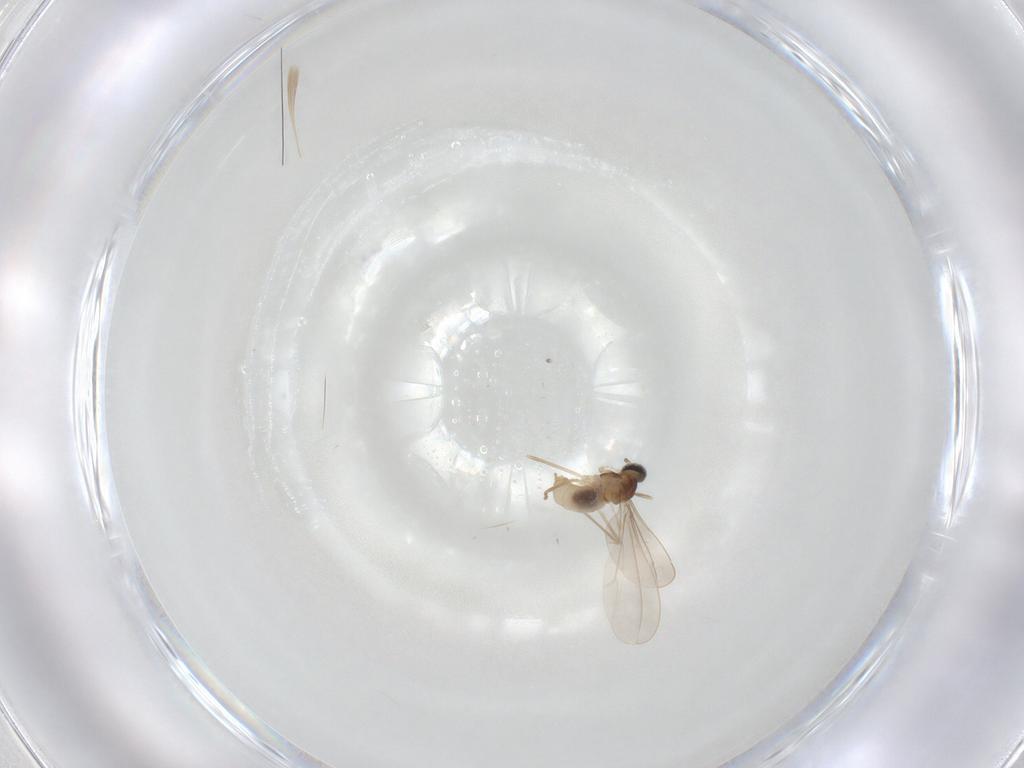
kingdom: Animalia
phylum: Arthropoda
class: Insecta
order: Diptera
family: Ceratopogonidae
